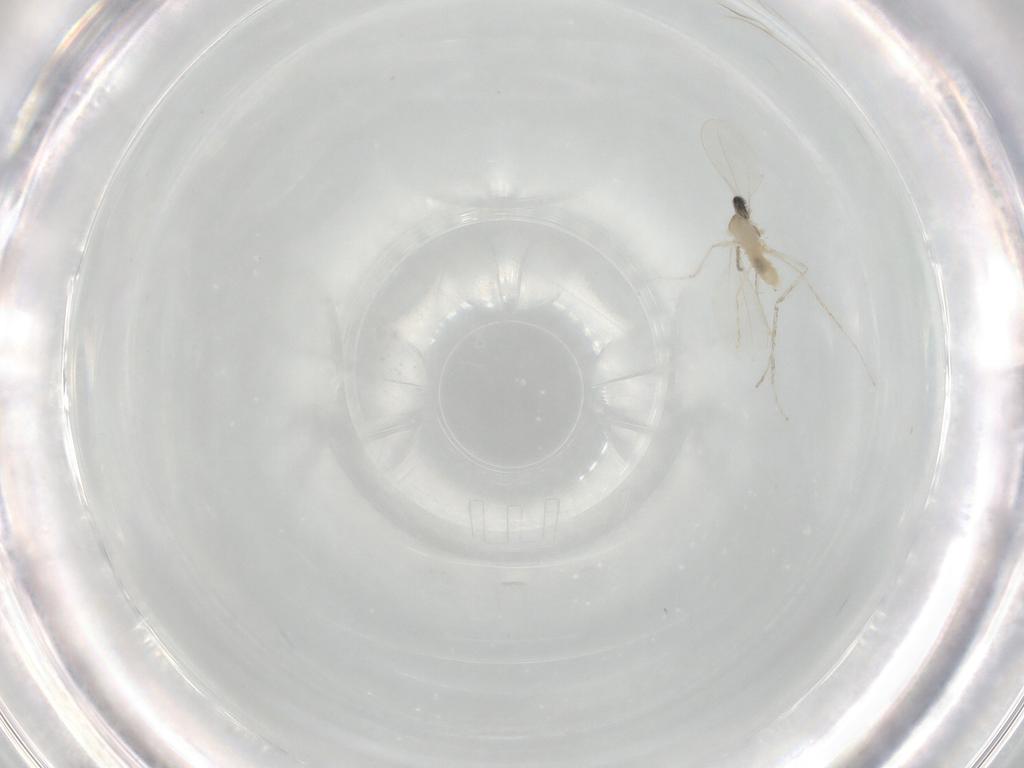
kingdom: Animalia
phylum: Arthropoda
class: Insecta
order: Diptera
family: Cecidomyiidae
